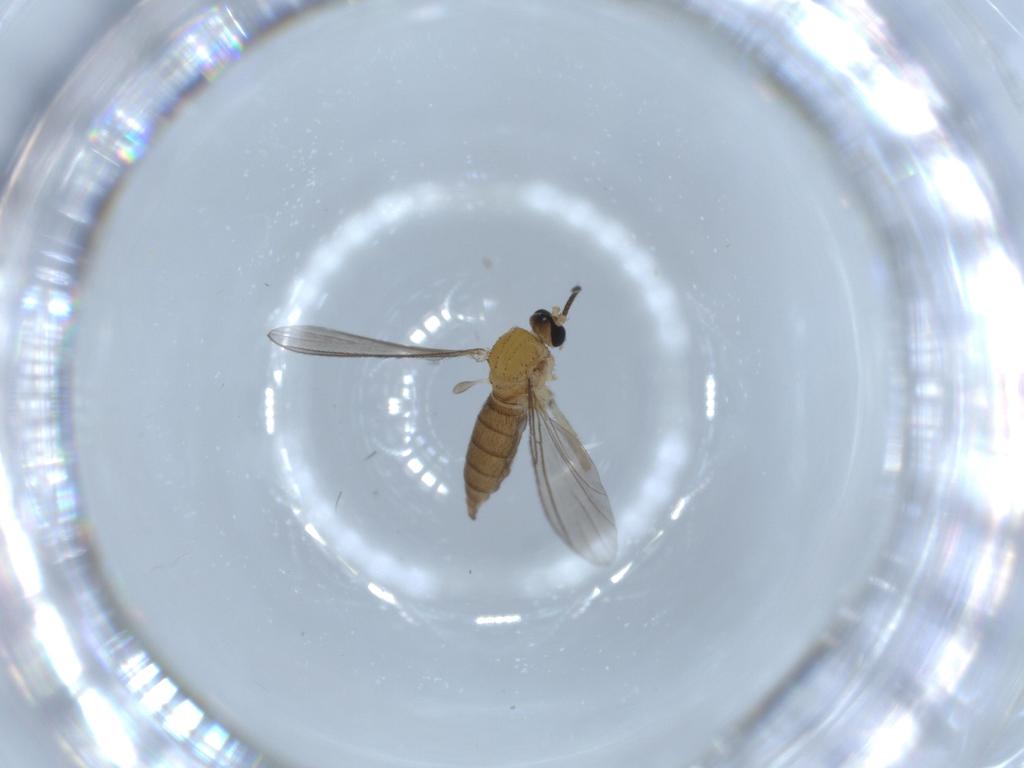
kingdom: Animalia
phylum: Arthropoda
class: Insecta
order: Diptera
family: Sciaridae
